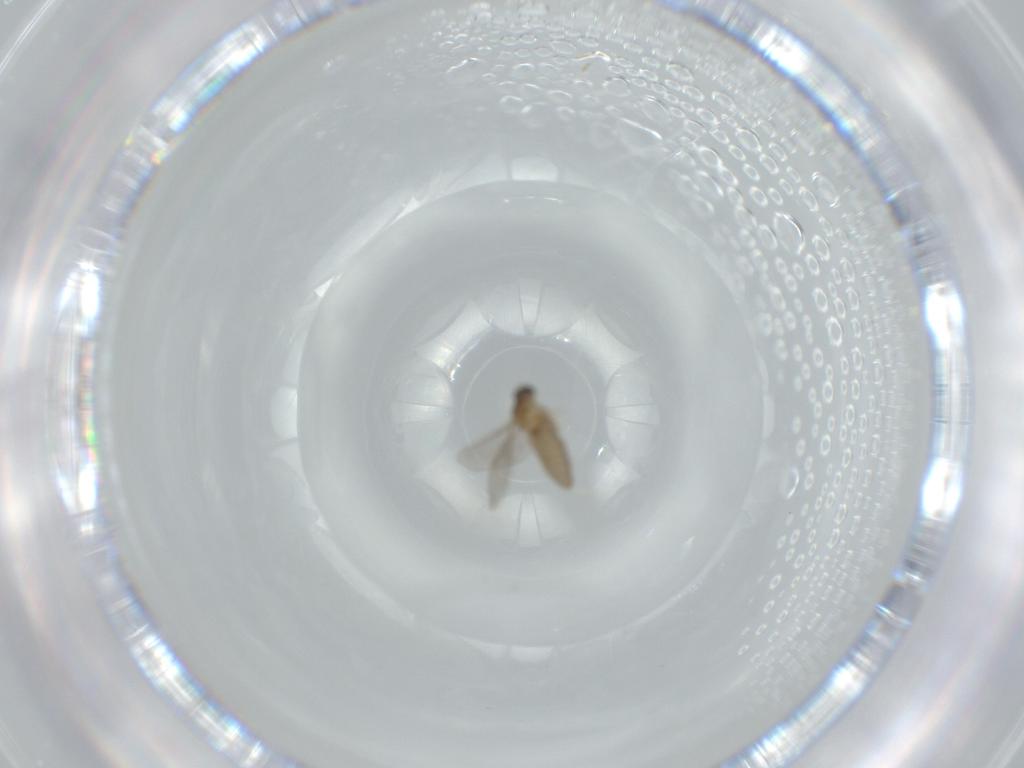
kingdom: Animalia
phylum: Arthropoda
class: Insecta
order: Diptera
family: Cecidomyiidae
